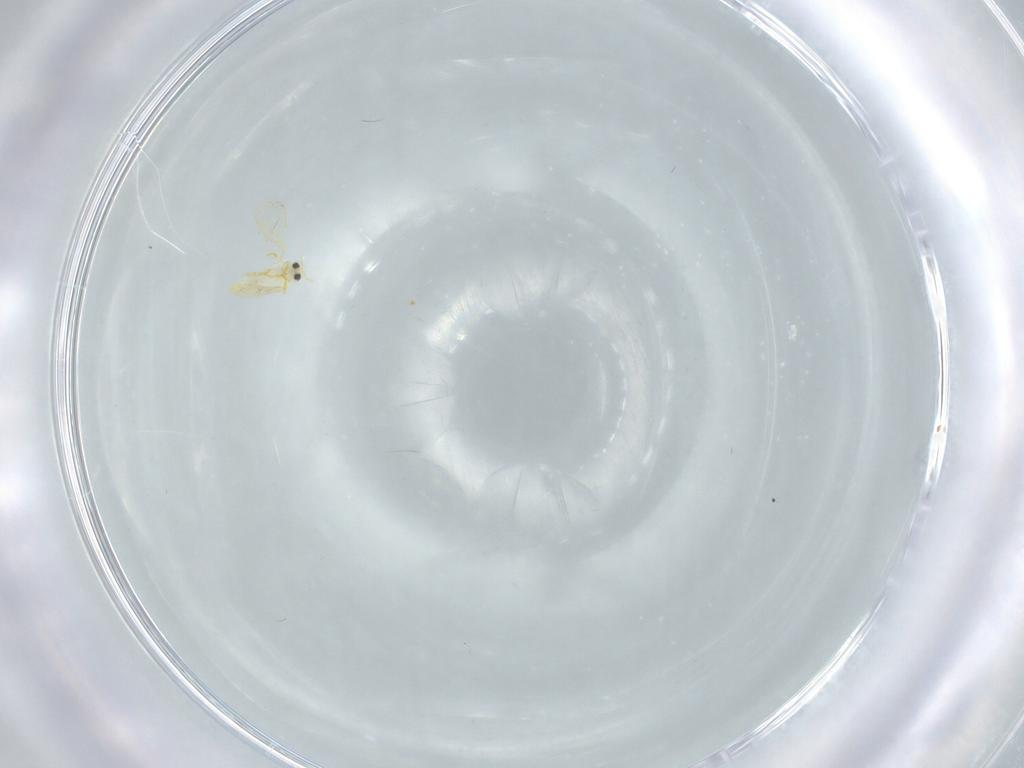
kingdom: Animalia
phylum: Arthropoda
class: Insecta
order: Hemiptera
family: Aleyrodidae
